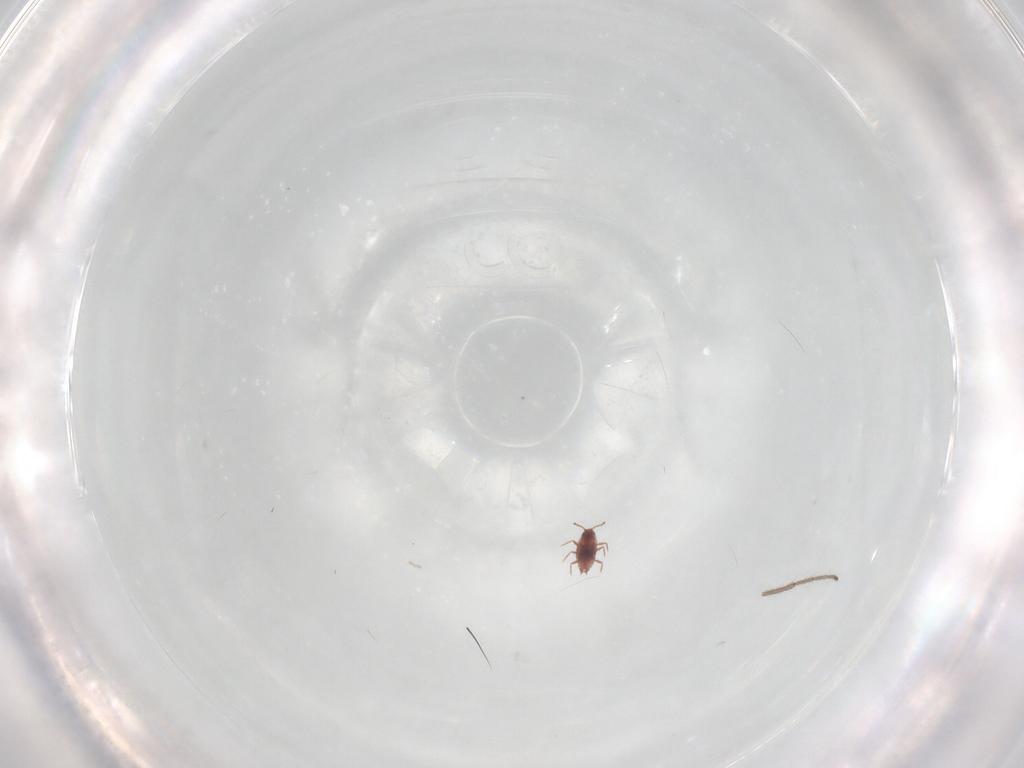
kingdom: Animalia
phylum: Arthropoda
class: Insecta
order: Hemiptera
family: Coccoidea_incertae_sedis
